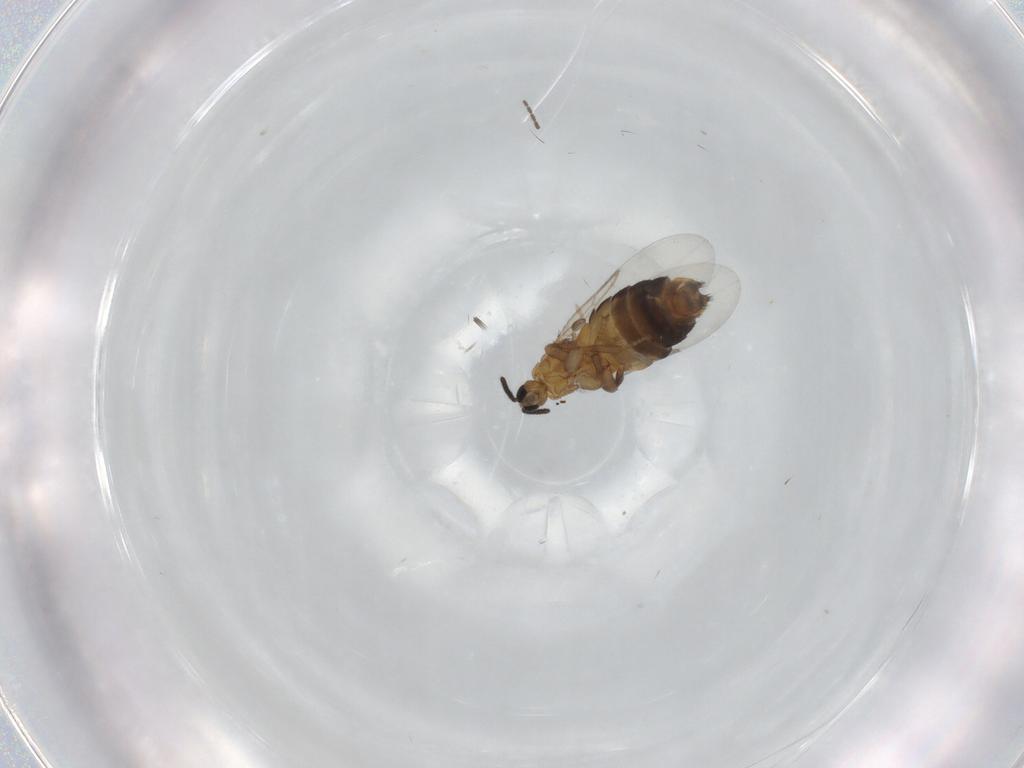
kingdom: Animalia
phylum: Arthropoda
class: Insecta
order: Diptera
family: Scatopsidae
